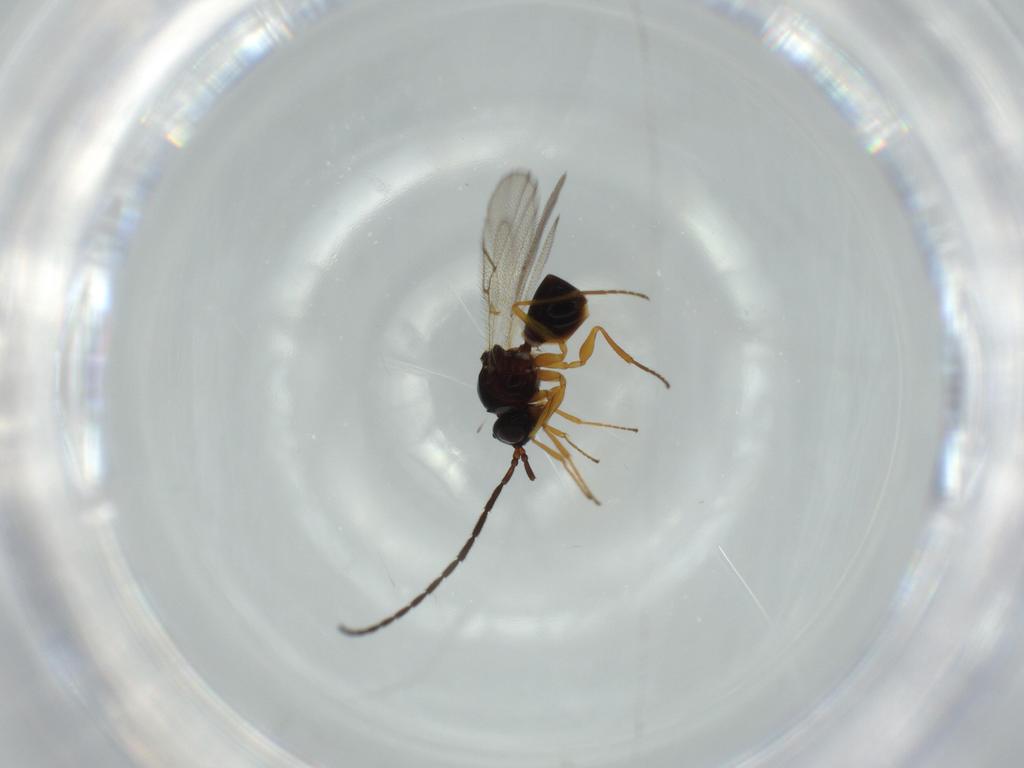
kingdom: Animalia
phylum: Arthropoda
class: Insecta
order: Hymenoptera
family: Figitidae
